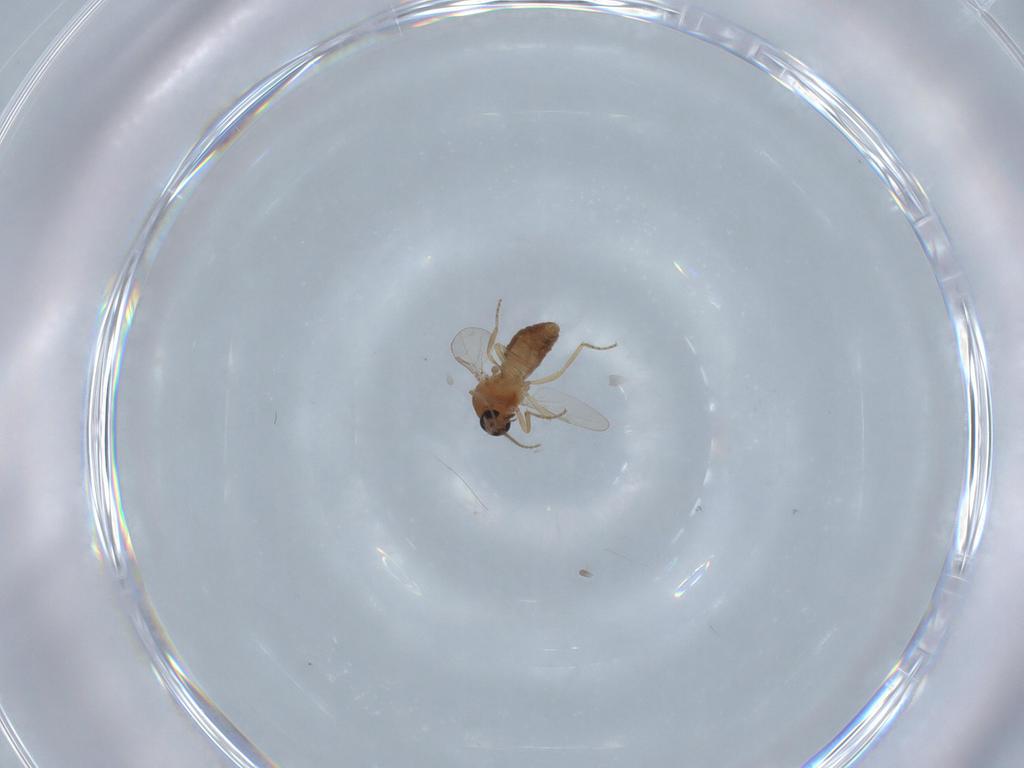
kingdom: Animalia
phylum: Arthropoda
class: Insecta
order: Diptera
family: Ceratopogonidae
